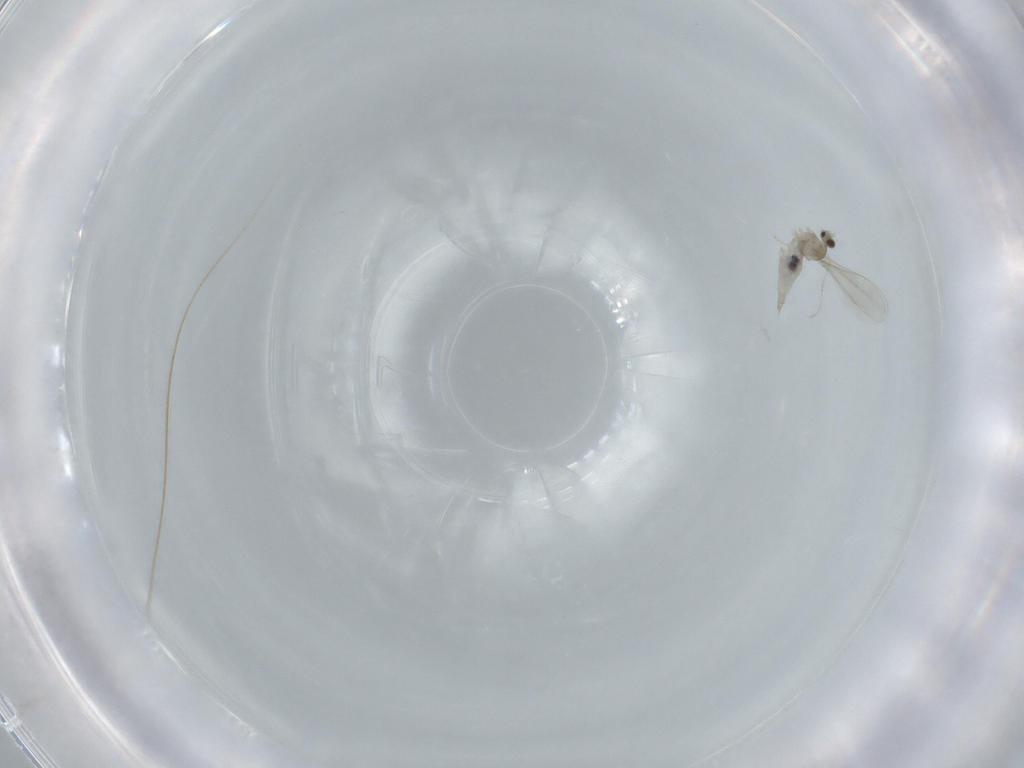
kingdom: Animalia
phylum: Arthropoda
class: Insecta
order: Diptera
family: Cecidomyiidae
